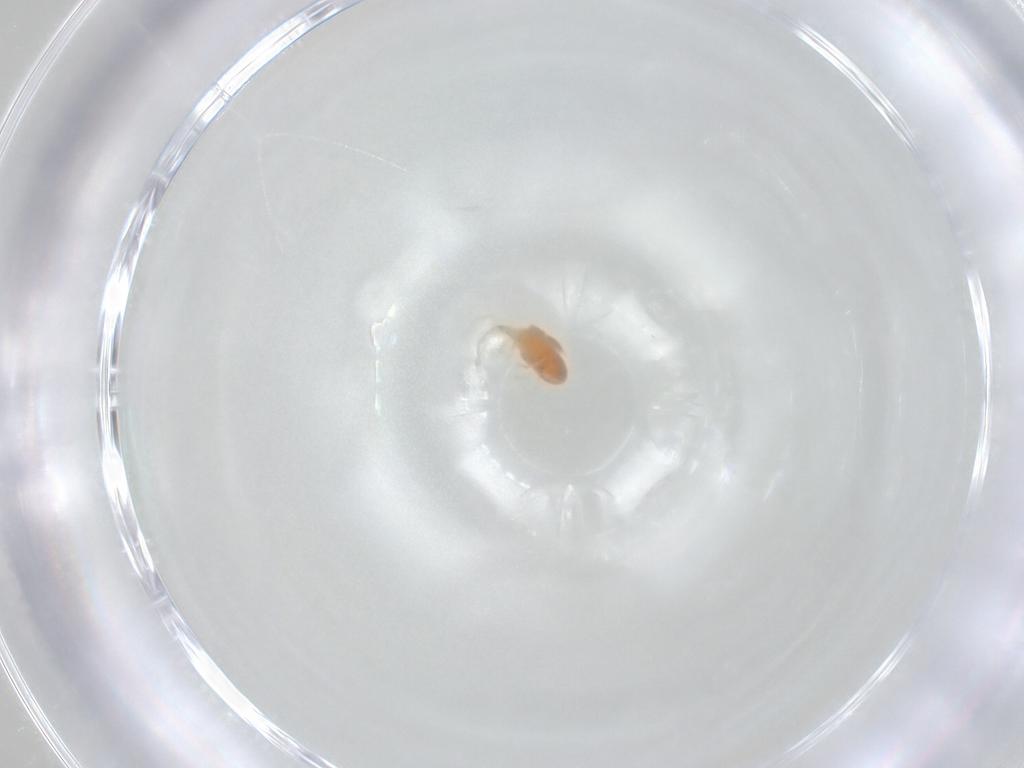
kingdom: Animalia
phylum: Arthropoda
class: Arachnida
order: Trombidiformes
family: Erythraeidae
